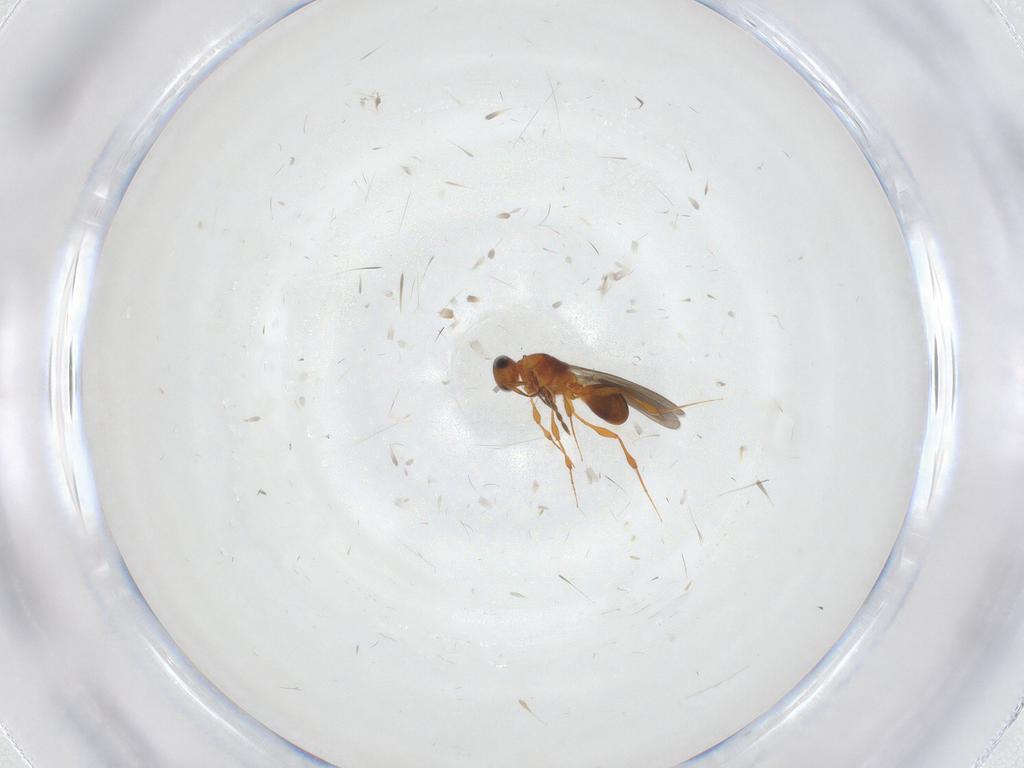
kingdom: Animalia
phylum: Arthropoda
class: Insecta
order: Hymenoptera
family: Platygastridae
